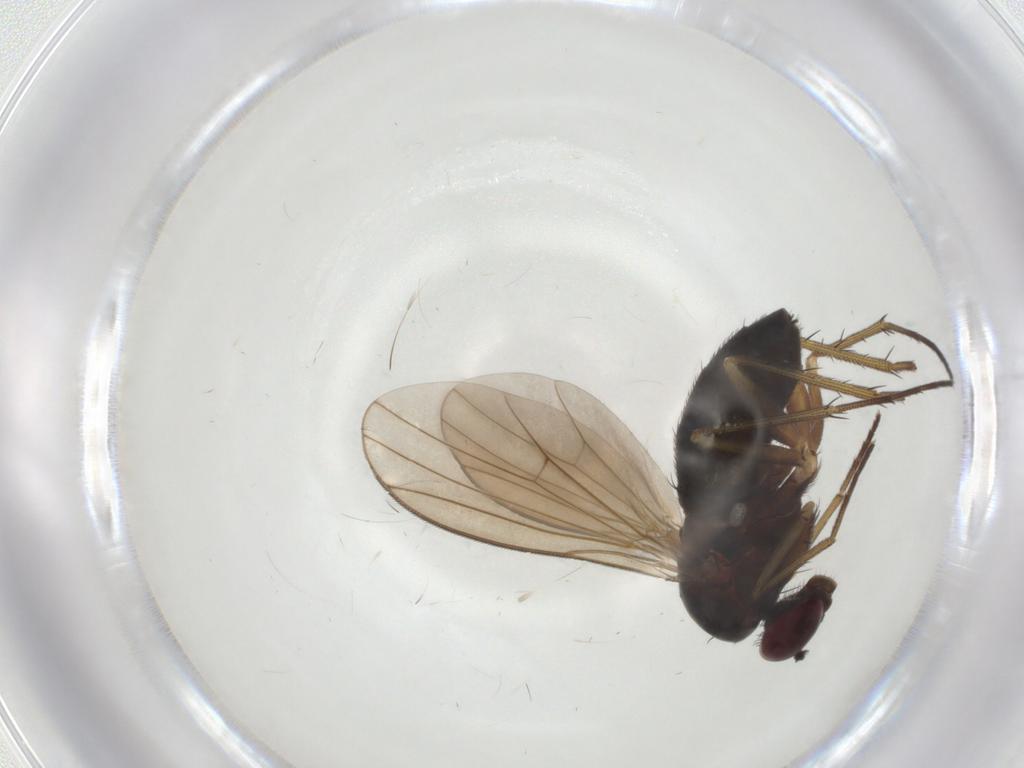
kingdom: Animalia
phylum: Arthropoda
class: Insecta
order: Diptera
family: Dolichopodidae
